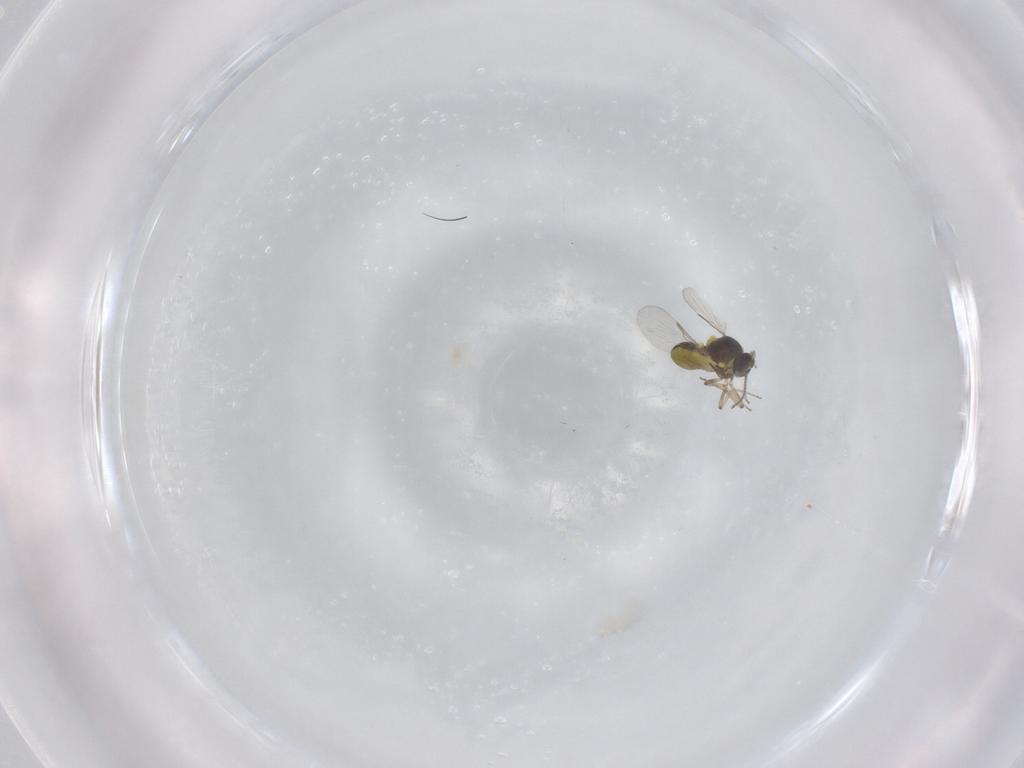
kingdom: Animalia
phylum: Arthropoda
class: Insecta
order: Diptera
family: Ceratopogonidae
